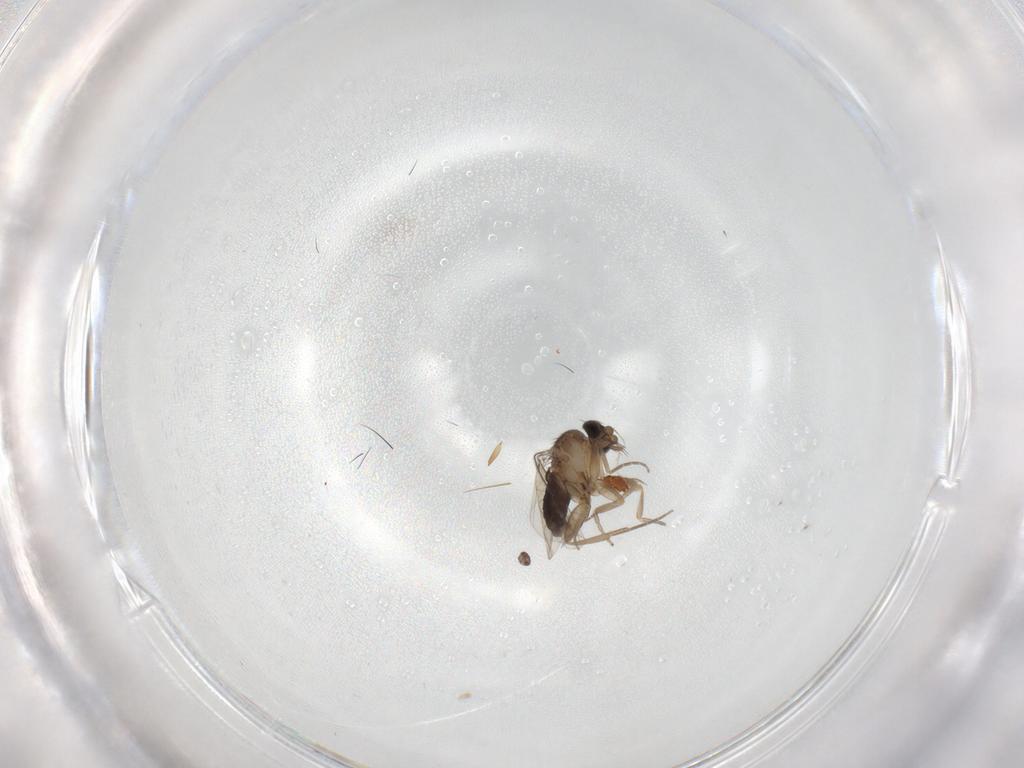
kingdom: Animalia
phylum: Arthropoda
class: Insecta
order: Diptera
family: Phoridae
